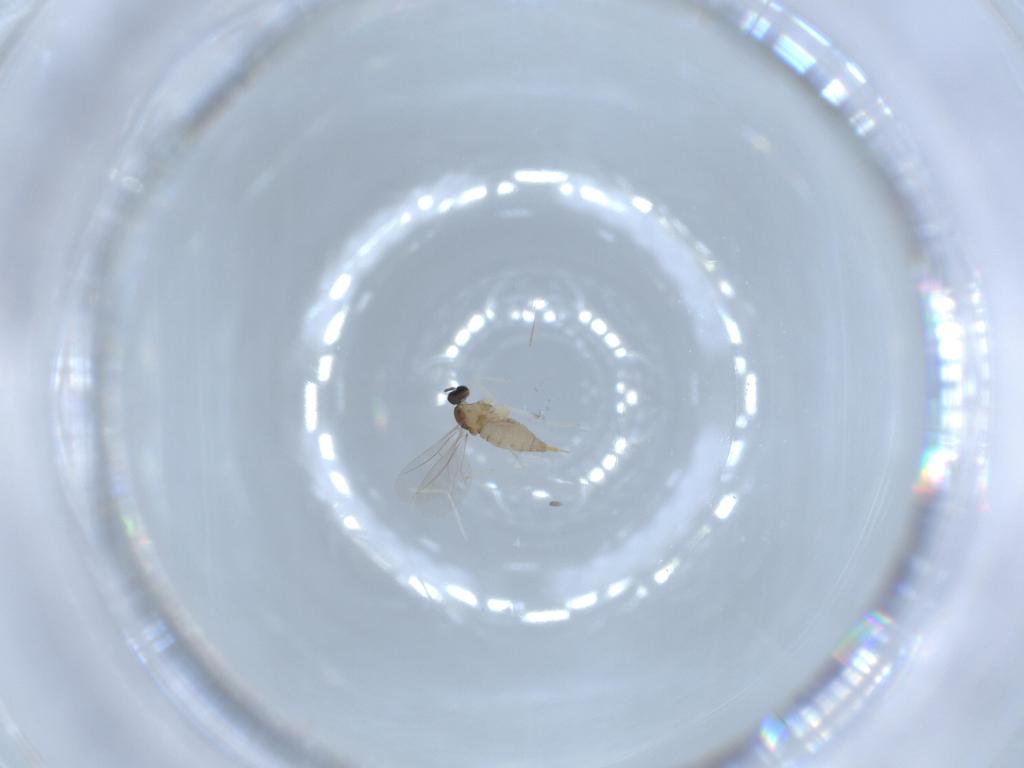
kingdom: Animalia
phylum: Arthropoda
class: Insecta
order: Diptera
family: Cecidomyiidae
